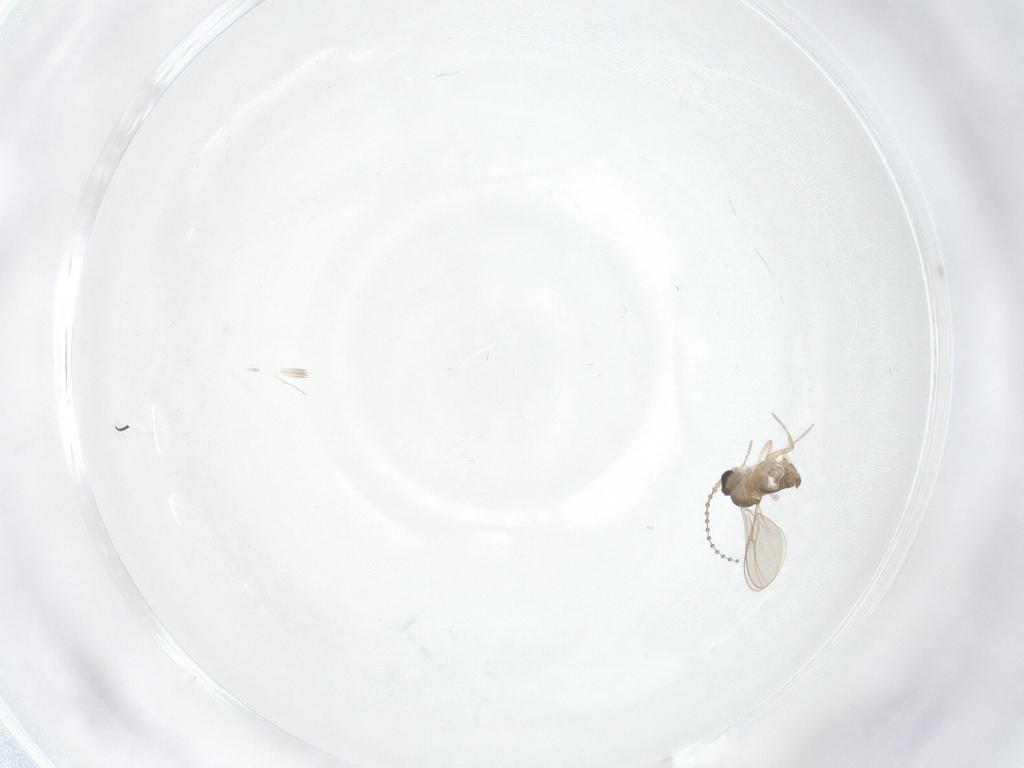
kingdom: Animalia
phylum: Arthropoda
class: Insecta
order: Diptera
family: Cecidomyiidae
